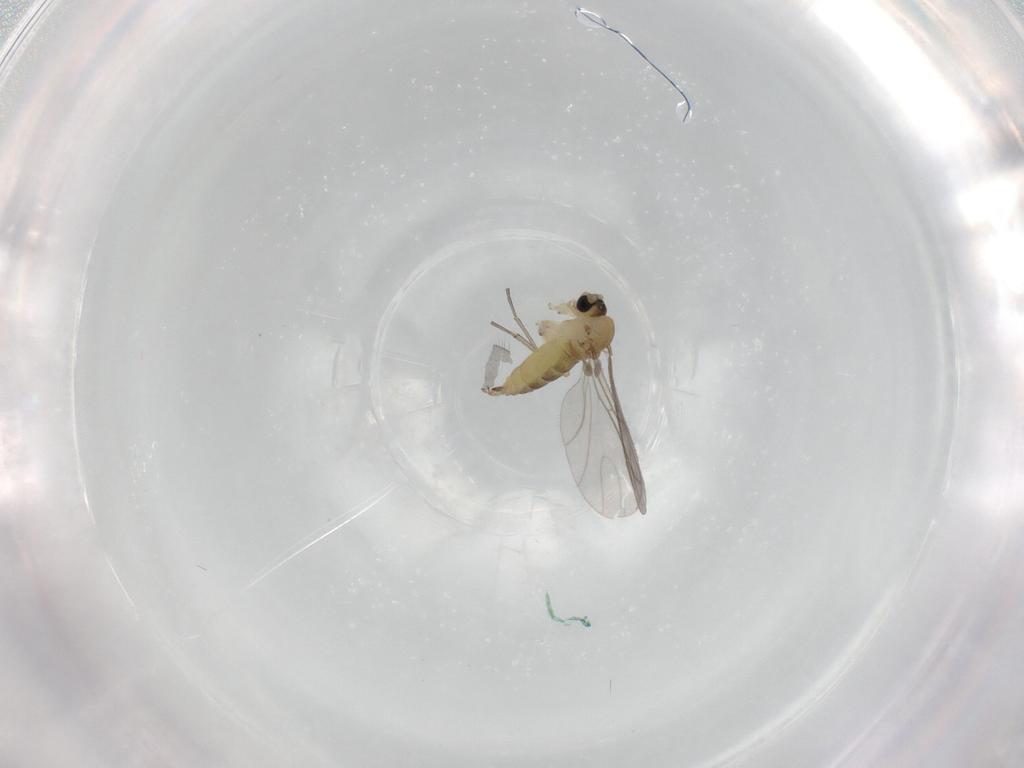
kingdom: Animalia
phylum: Arthropoda
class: Insecta
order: Diptera
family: Sciaridae
